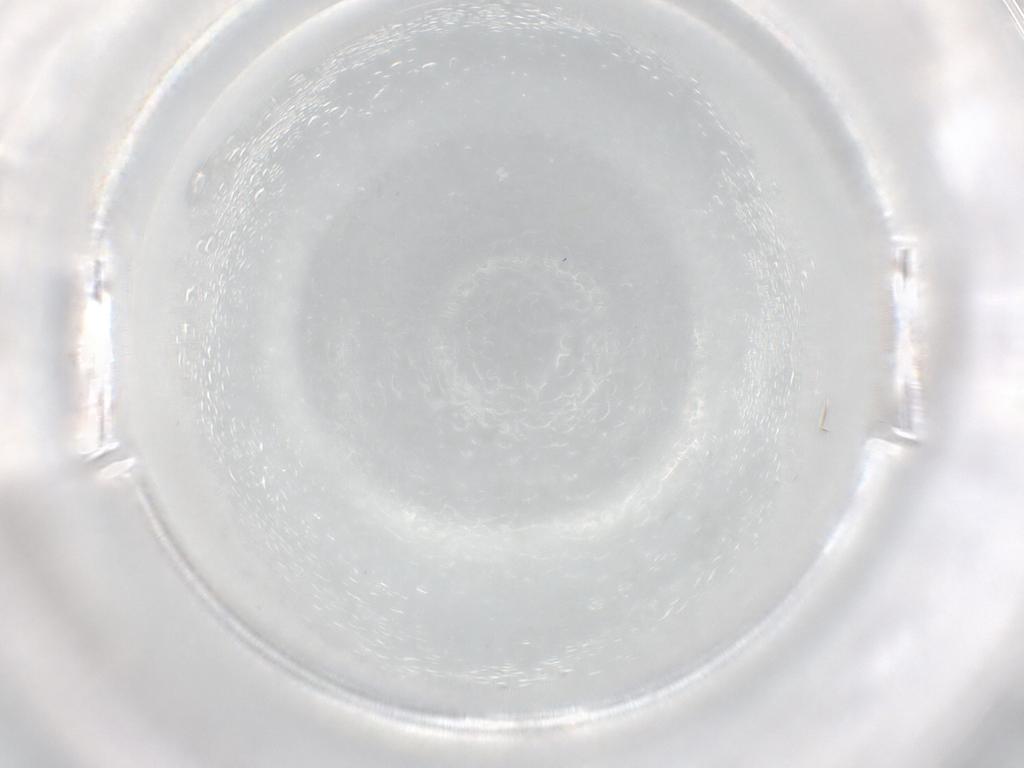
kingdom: Animalia
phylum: Arthropoda
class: Arachnida
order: Trombidiformes
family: Eupodidae
